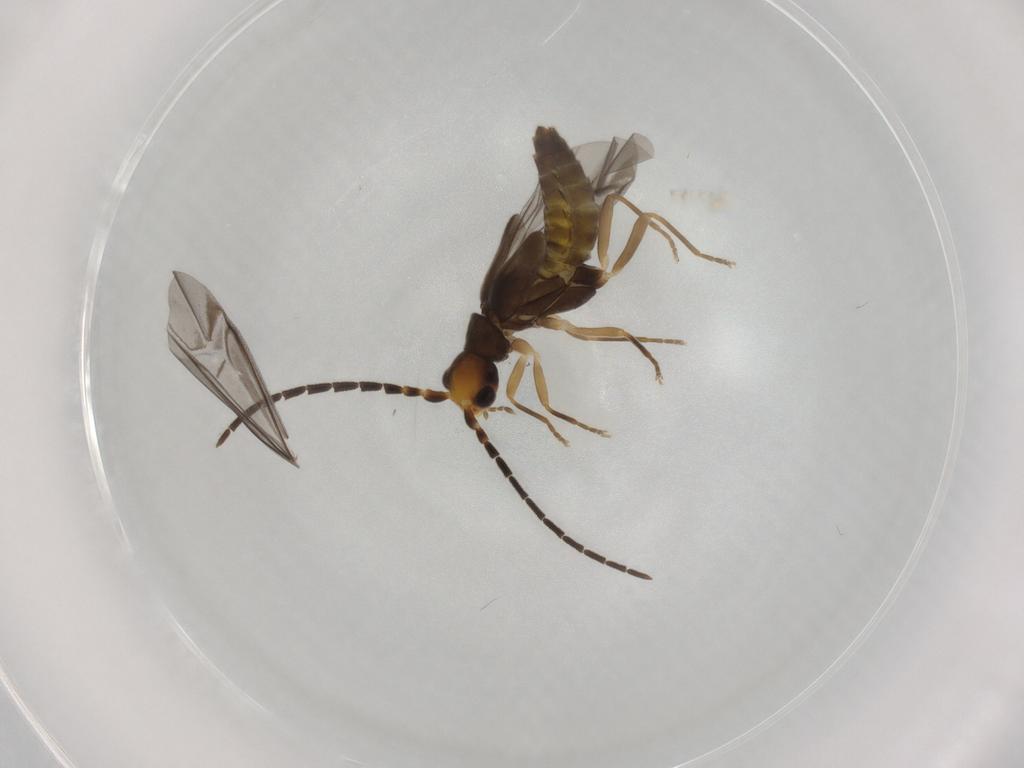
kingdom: Animalia
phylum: Arthropoda
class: Insecta
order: Coleoptera
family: Cantharidae
